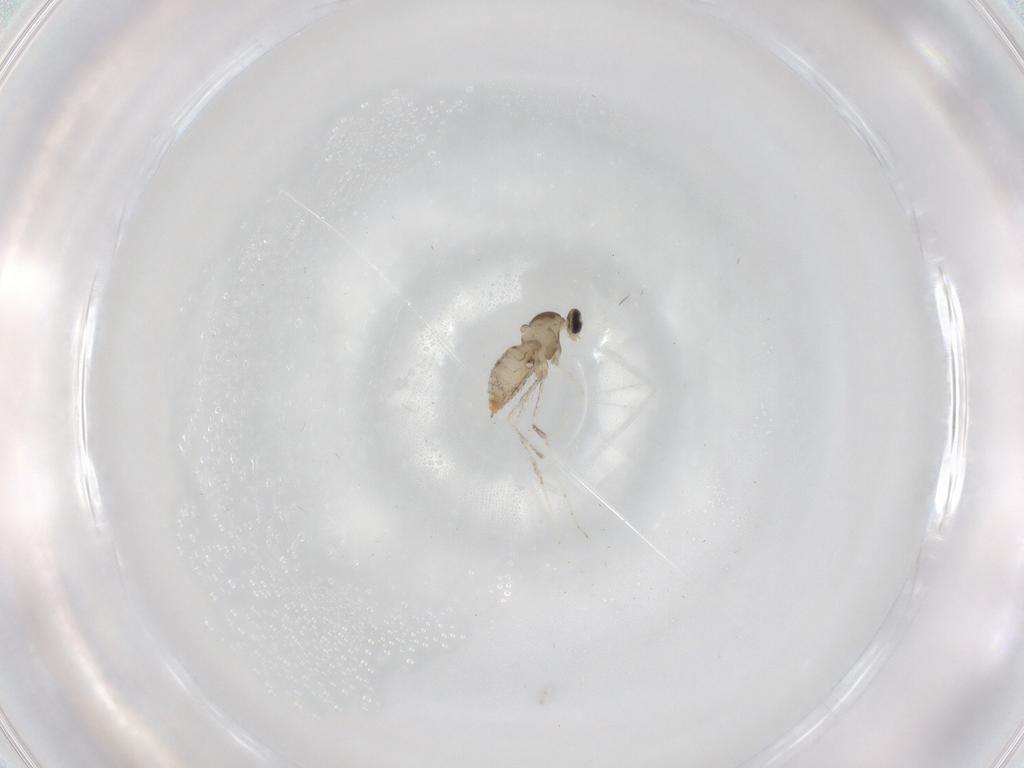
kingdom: Animalia
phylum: Arthropoda
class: Insecta
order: Diptera
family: Cecidomyiidae
